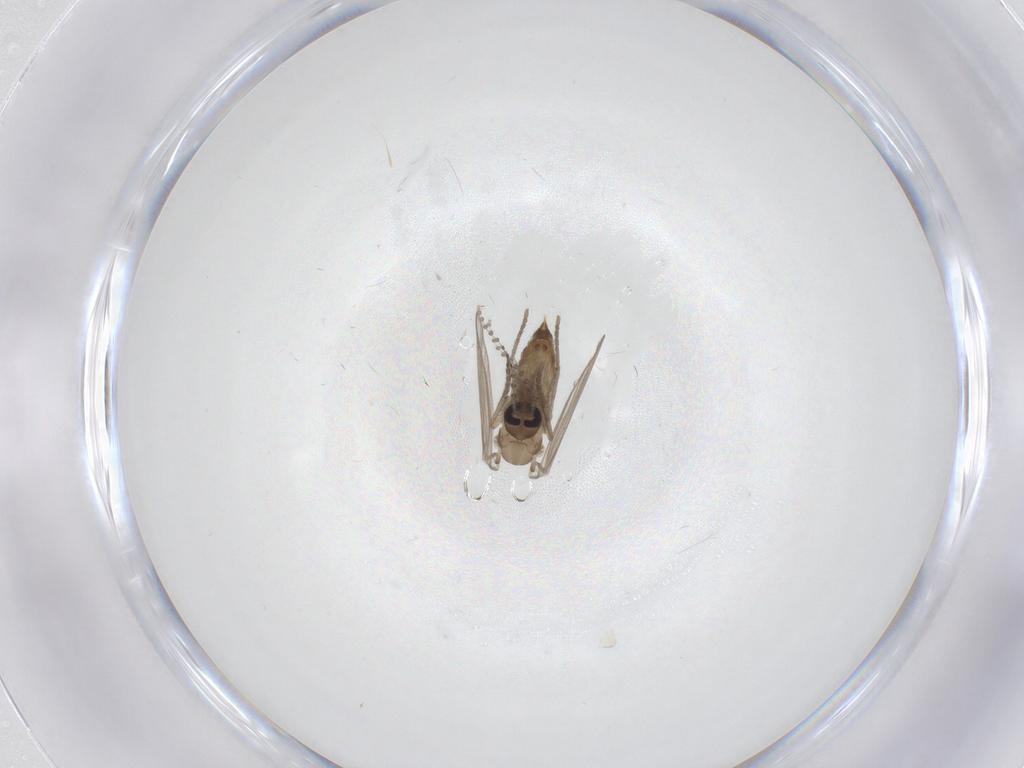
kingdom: Animalia
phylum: Arthropoda
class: Insecta
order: Diptera
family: Psychodidae
